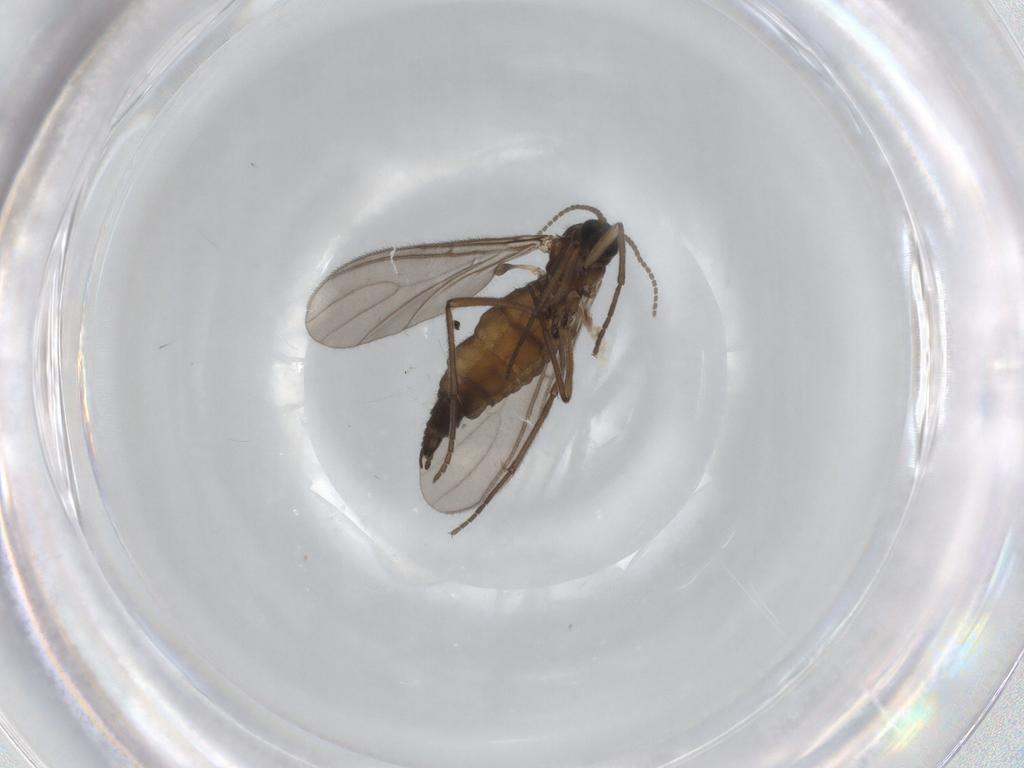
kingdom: Animalia
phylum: Arthropoda
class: Insecta
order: Diptera
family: Sciaridae
